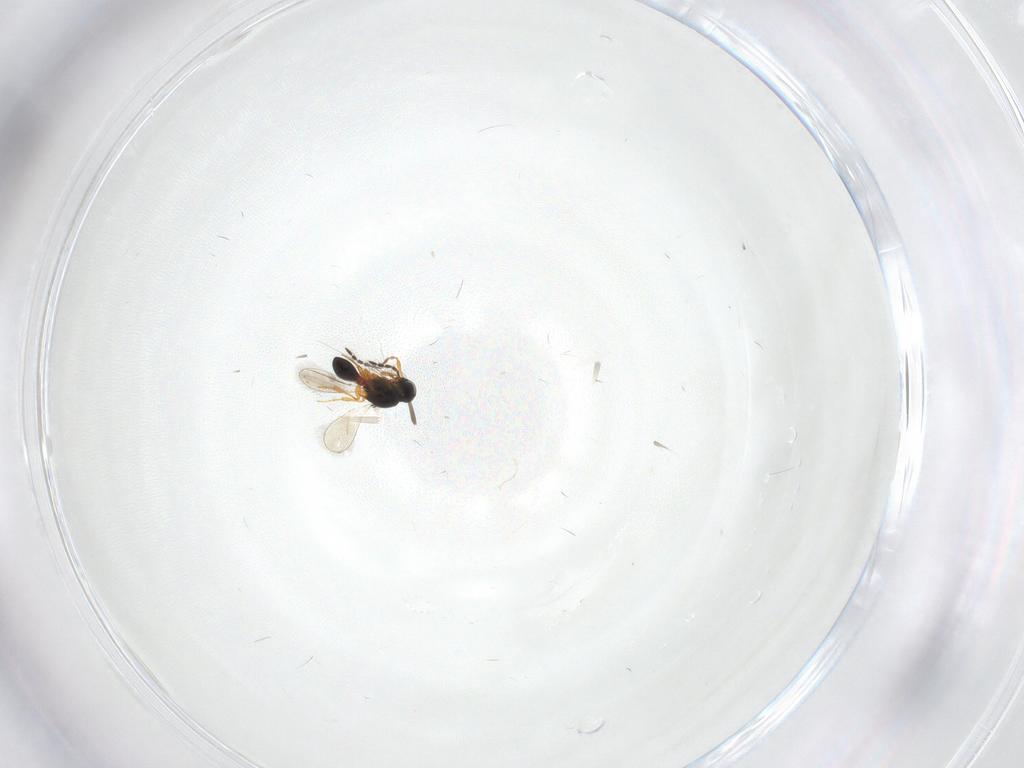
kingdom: Animalia
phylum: Arthropoda
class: Insecta
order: Hymenoptera
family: Platygastridae
